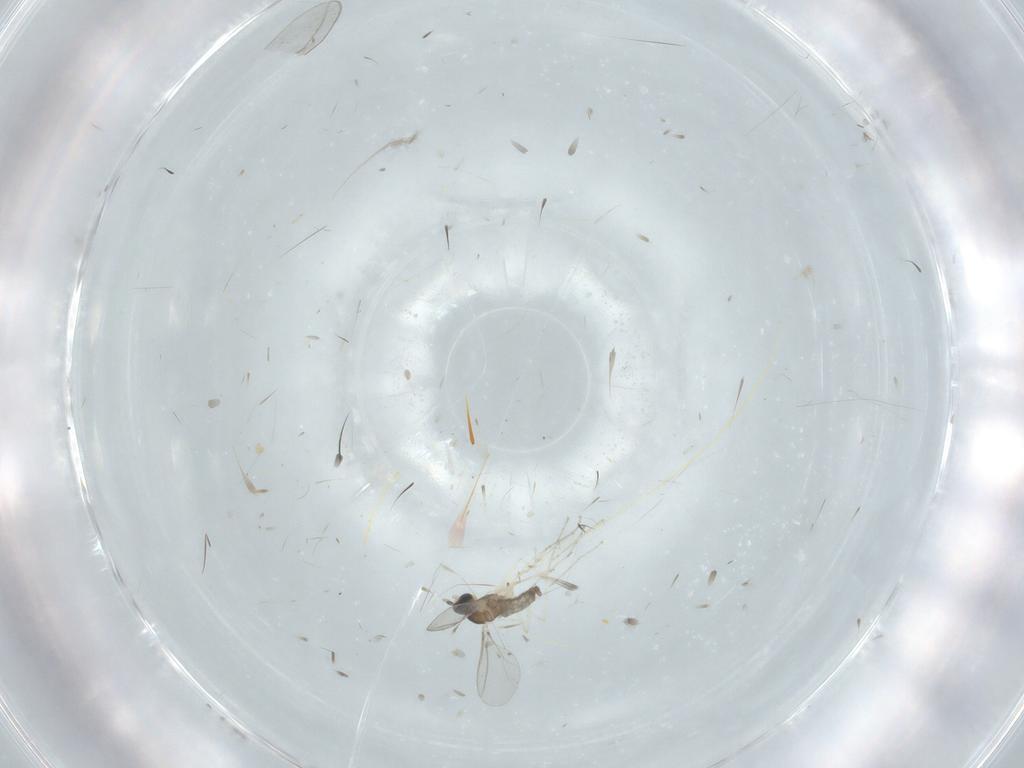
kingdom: Animalia
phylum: Arthropoda
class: Insecta
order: Diptera
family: Cecidomyiidae
